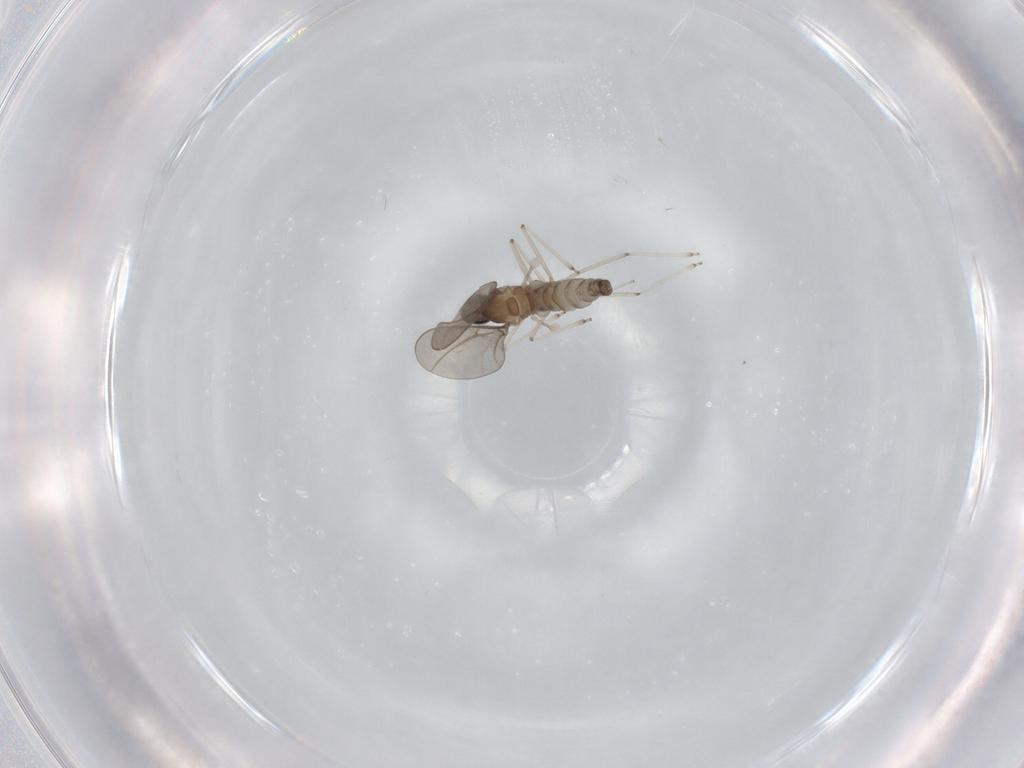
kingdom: Animalia
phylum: Arthropoda
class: Insecta
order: Diptera
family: Cecidomyiidae
